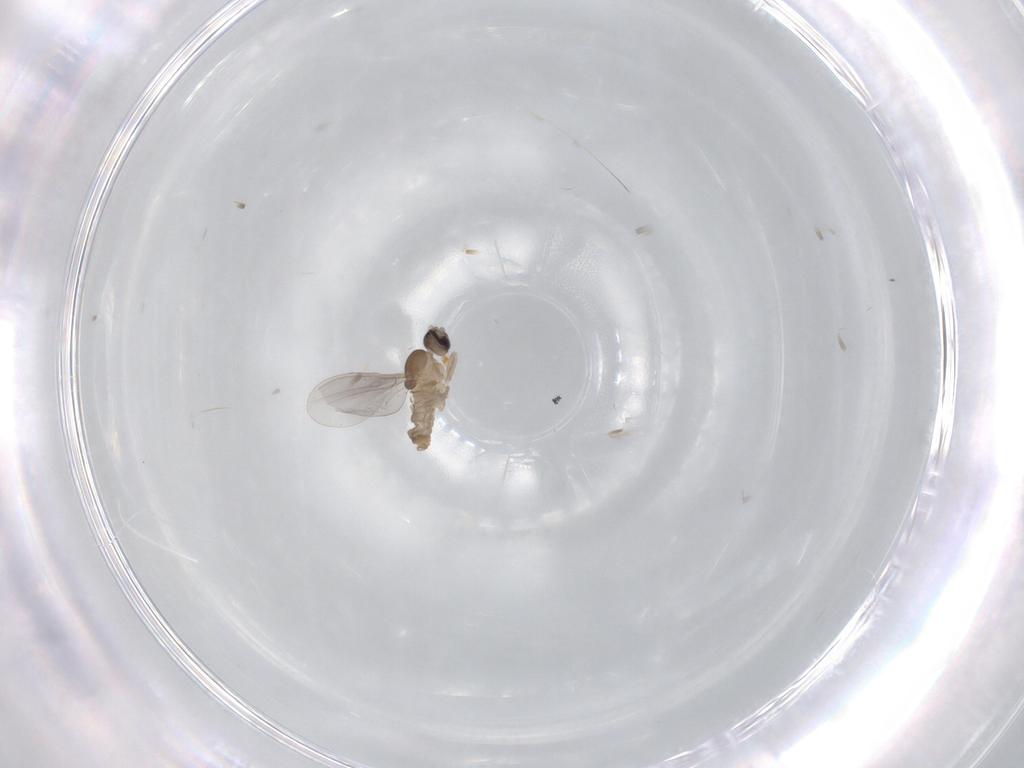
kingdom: Animalia
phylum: Arthropoda
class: Insecta
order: Diptera
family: Cecidomyiidae
